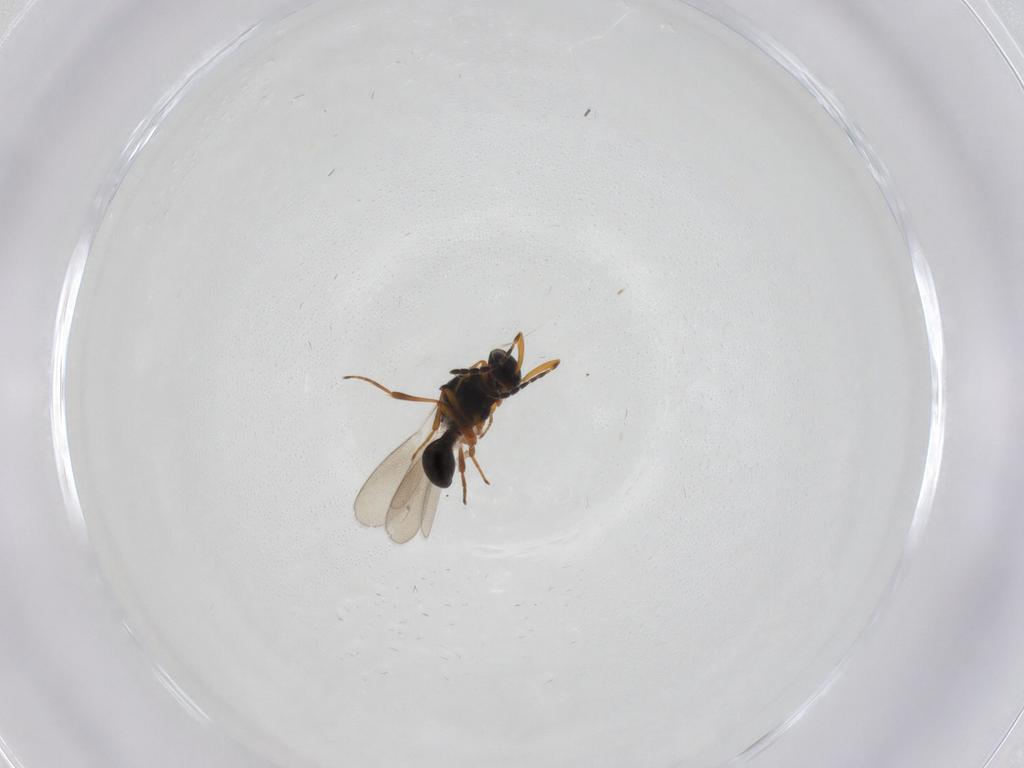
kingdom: Animalia
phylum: Arthropoda
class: Insecta
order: Hymenoptera
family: Platygastridae
